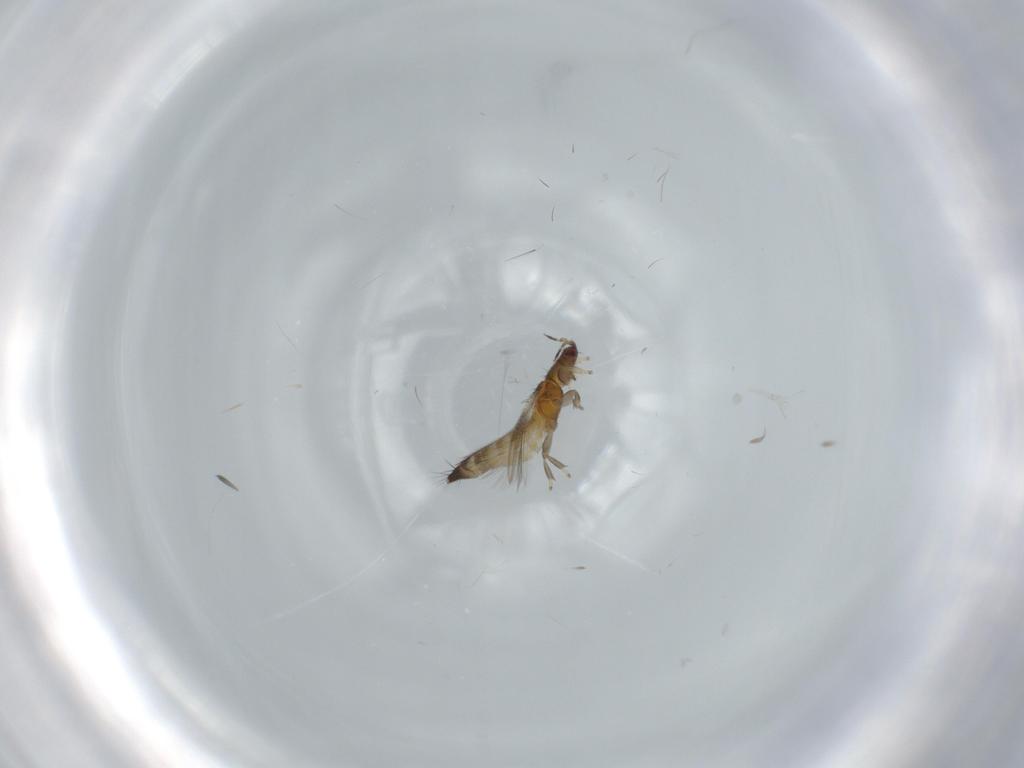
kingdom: Animalia
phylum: Arthropoda
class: Insecta
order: Thysanoptera
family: Thripidae
